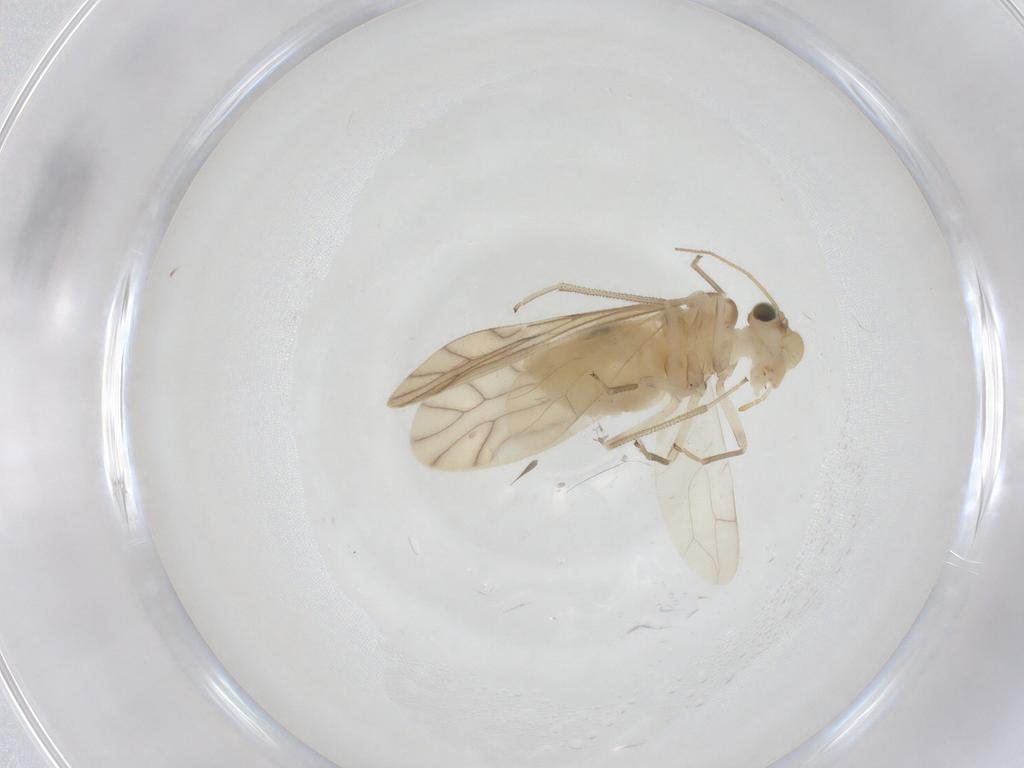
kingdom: Animalia
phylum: Arthropoda
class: Insecta
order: Psocodea
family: Caeciliusidae
